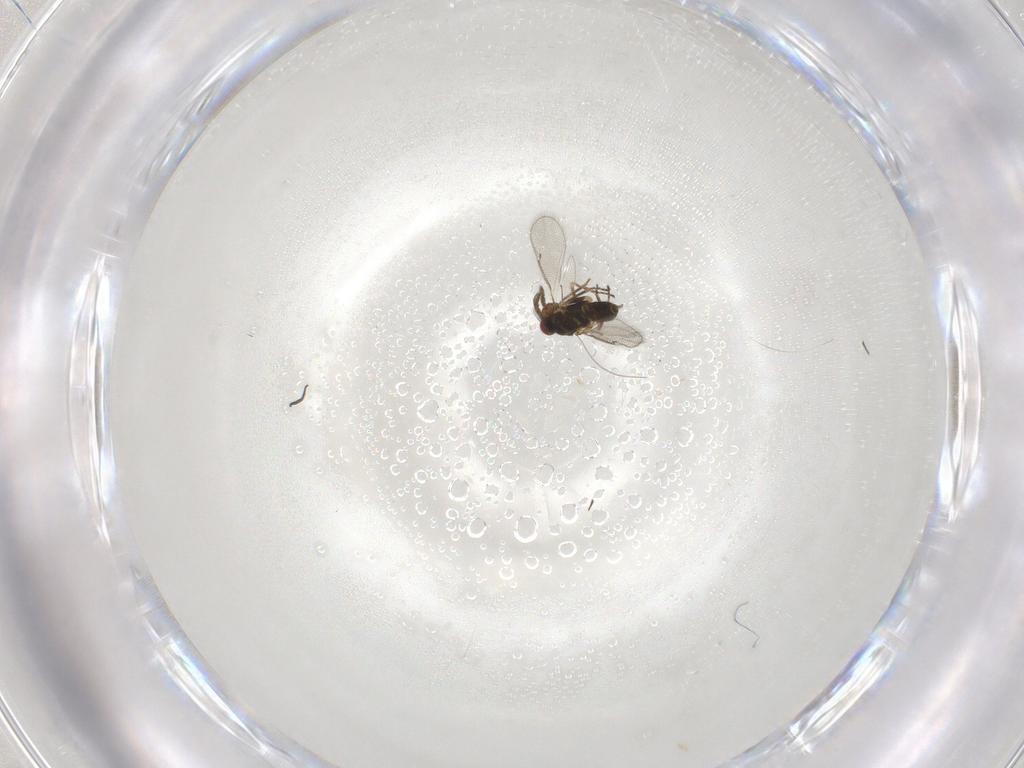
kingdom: Animalia
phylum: Arthropoda
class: Insecta
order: Hymenoptera
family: Eulophidae
